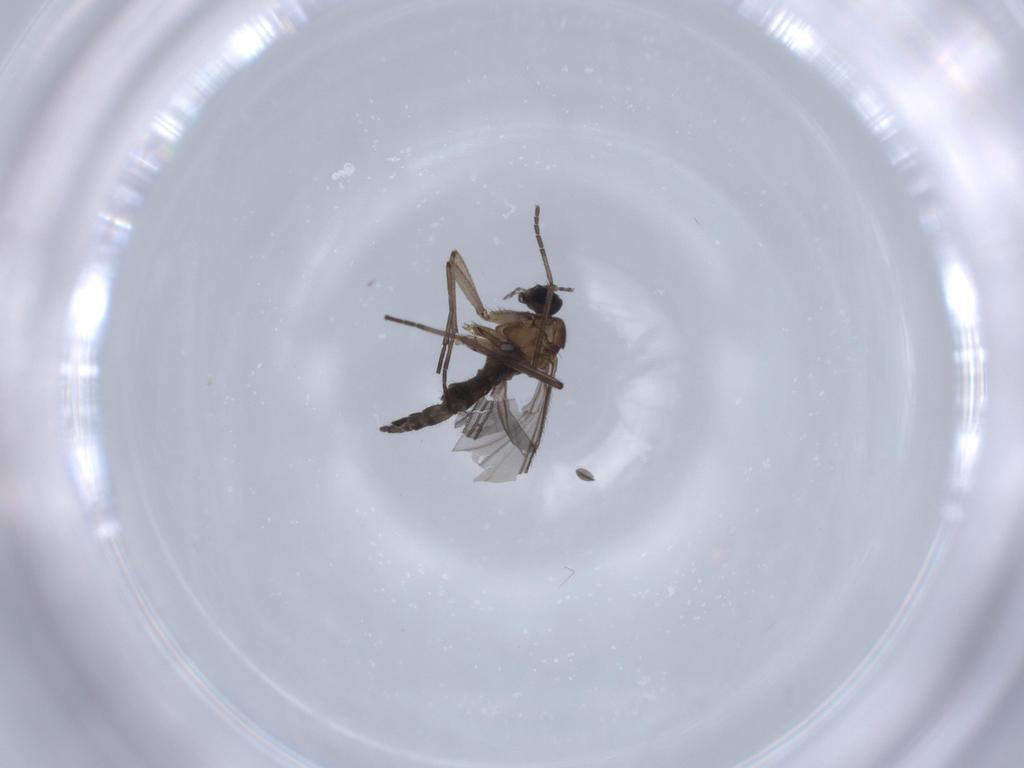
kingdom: Animalia
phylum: Arthropoda
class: Insecta
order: Diptera
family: Sciaridae
